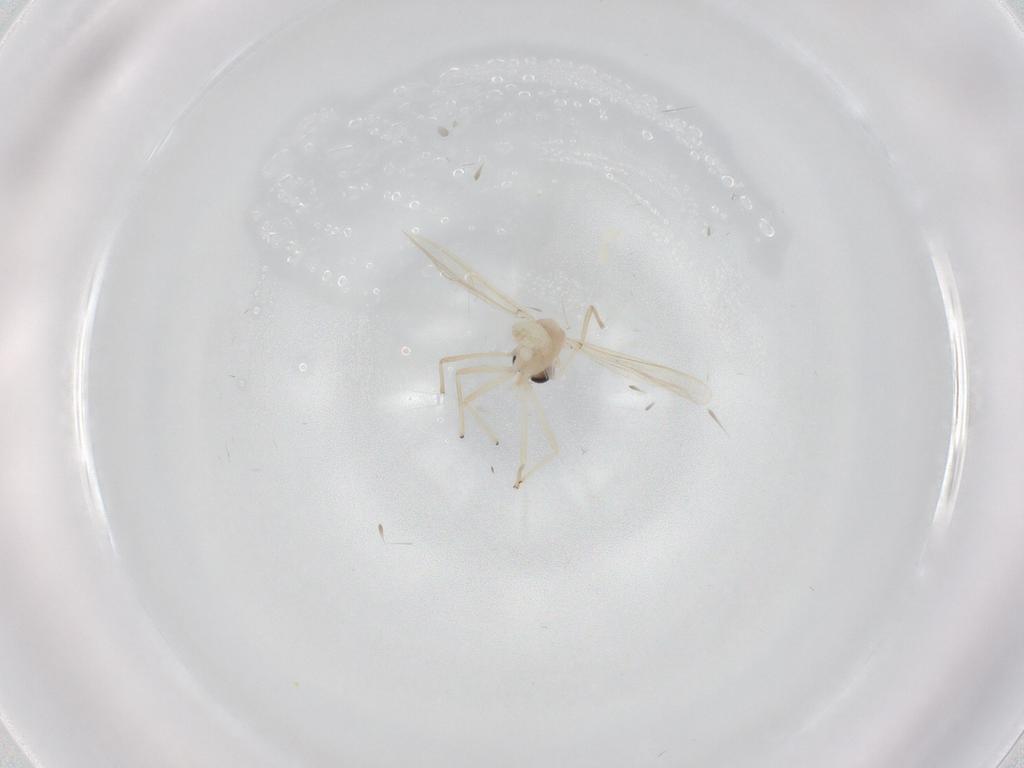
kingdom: Animalia
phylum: Arthropoda
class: Insecta
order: Diptera
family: Chironomidae
